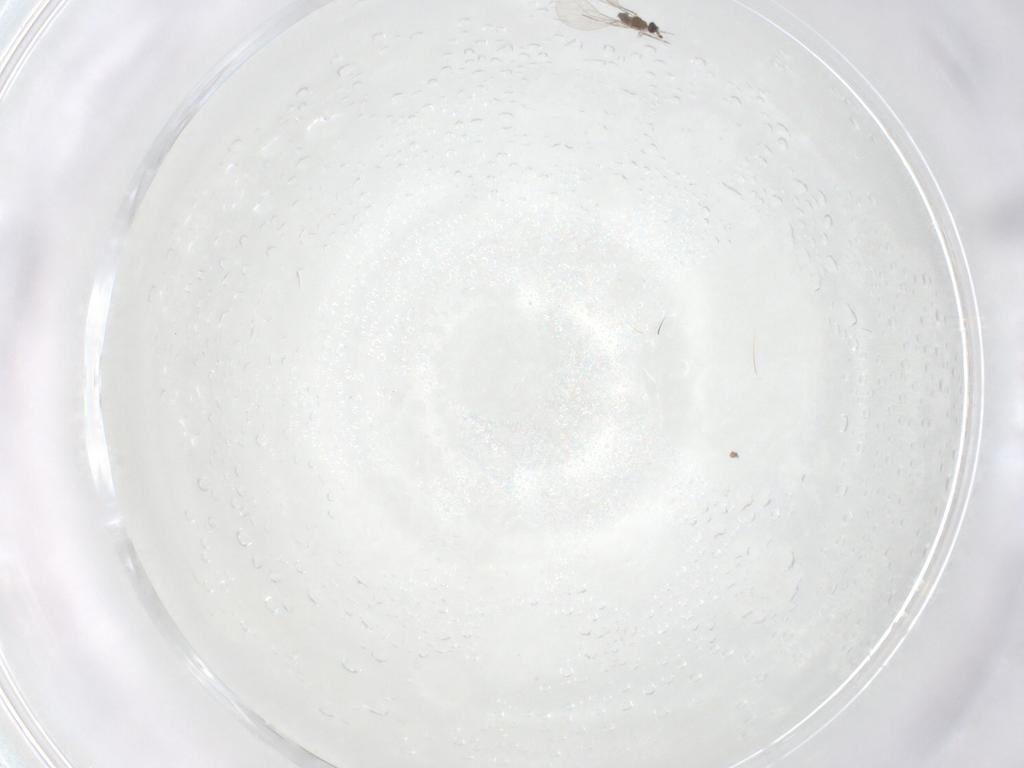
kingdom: Animalia
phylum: Arthropoda
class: Insecta
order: Diptera
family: Cecidomyiidae
